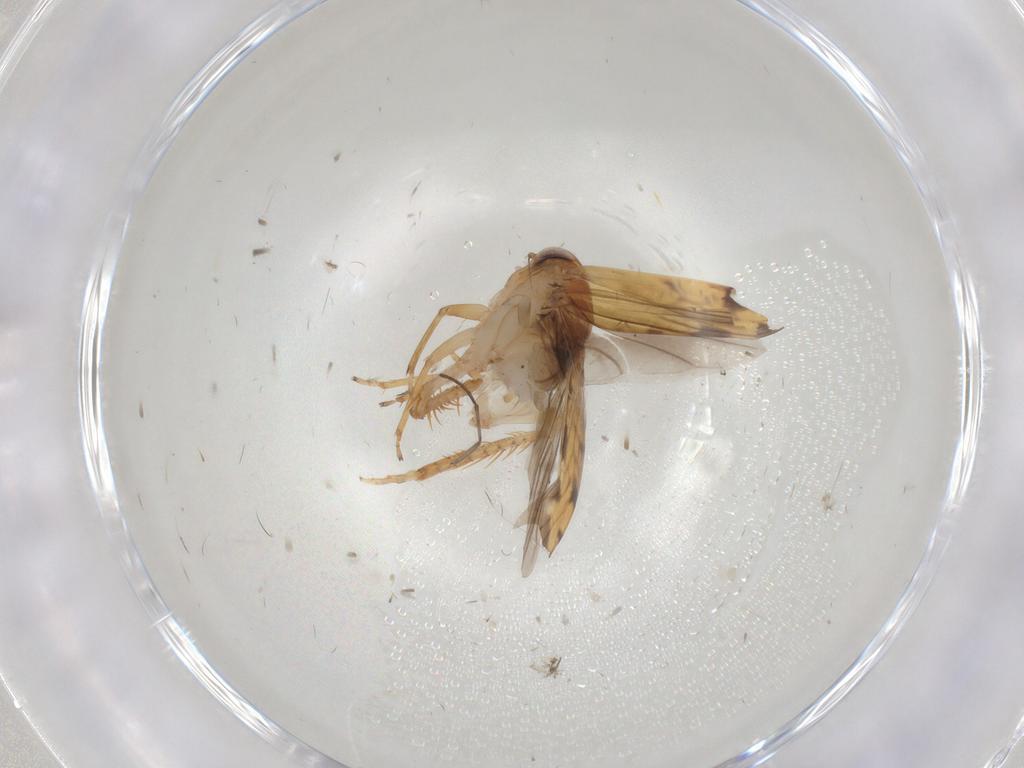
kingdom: Animalia
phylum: Arthropoda
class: Insecta
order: Hemiptera
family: Cicadellidae
